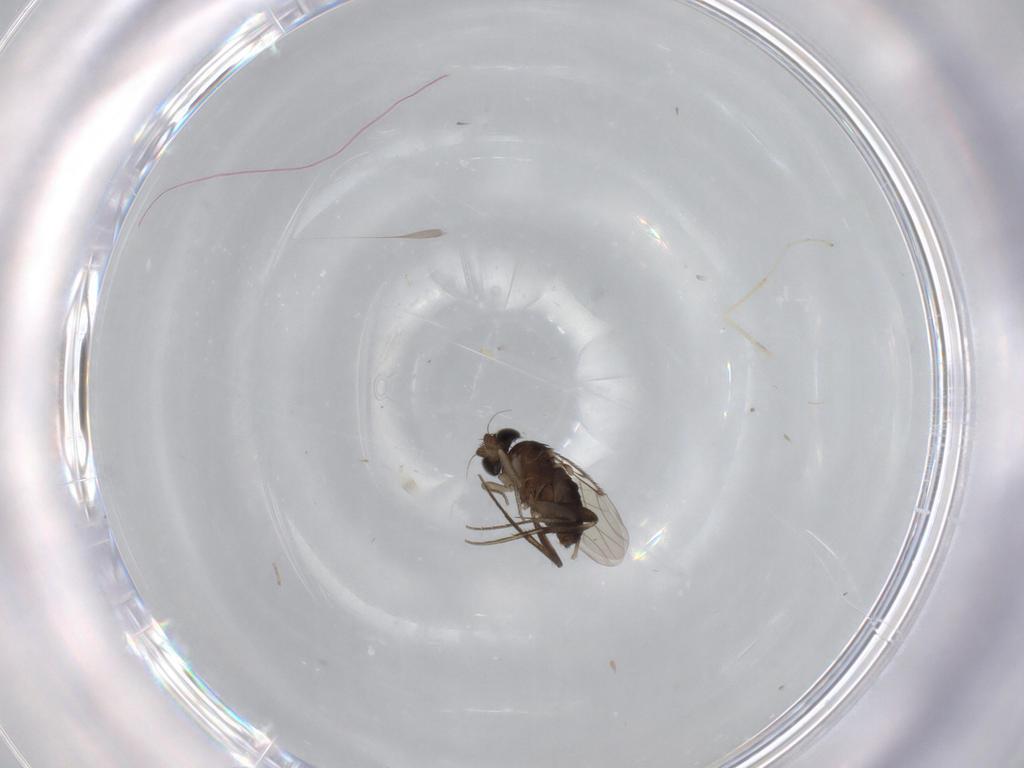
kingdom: Animalia
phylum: Arthropoda
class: Insecta
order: Diptera
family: Phoridae
